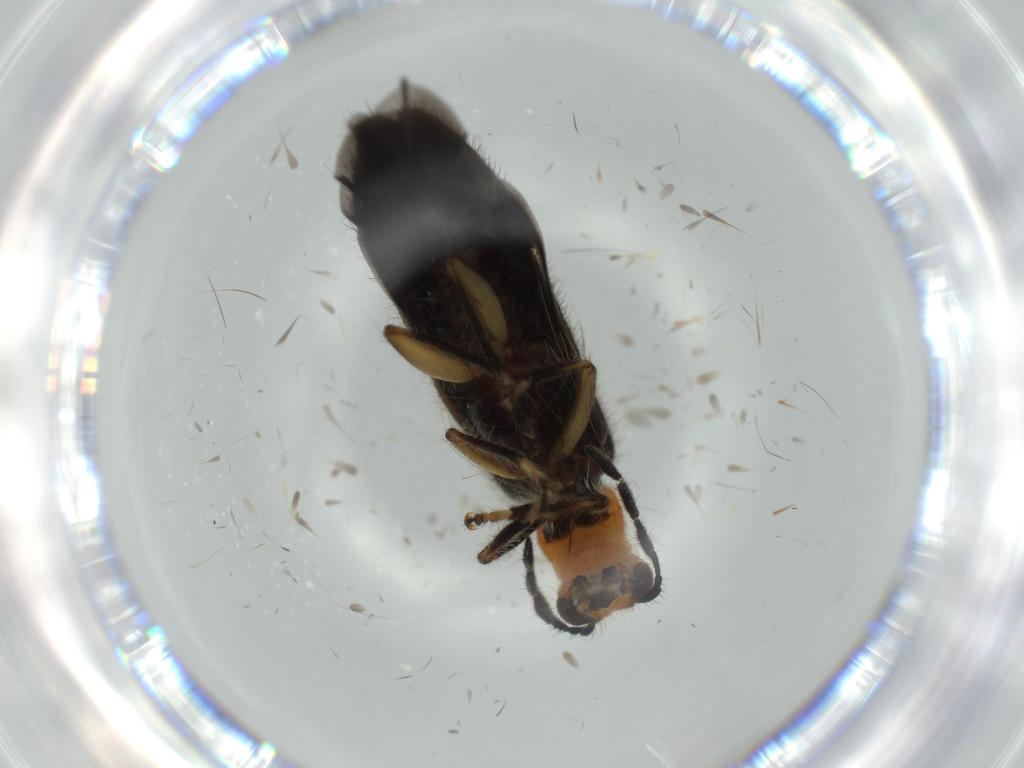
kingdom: Animalia
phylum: Arthropoda
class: Insecta
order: Coleoptera
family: Cleridae
